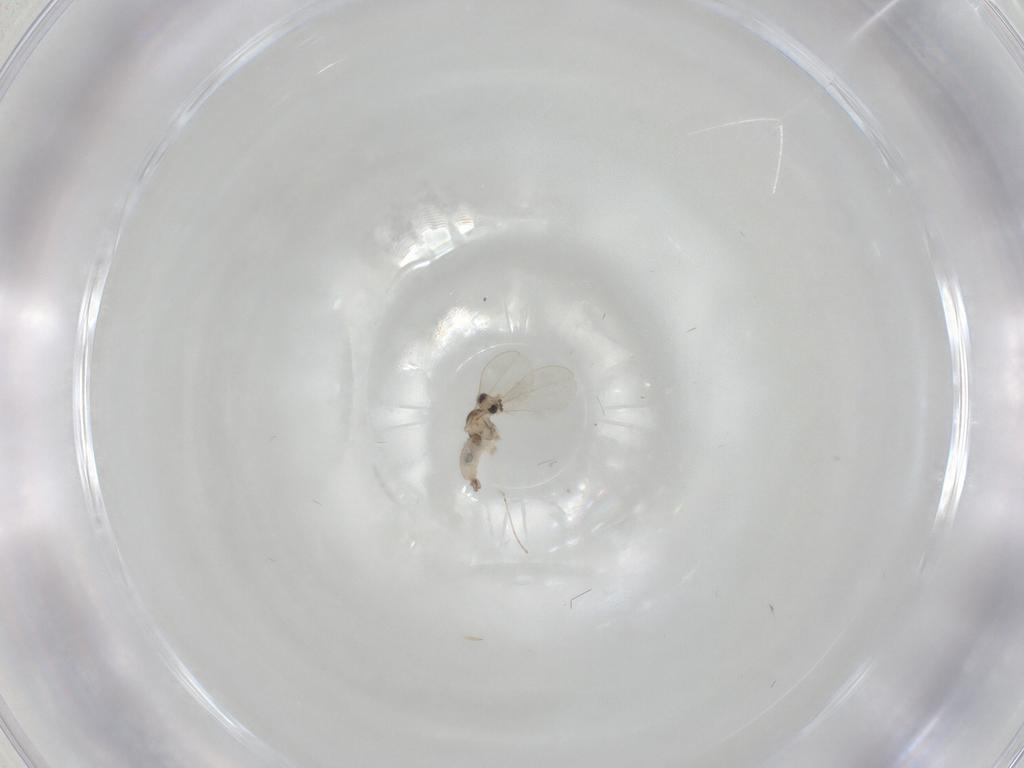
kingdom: Animalia
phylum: Arthropoda
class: Insecta
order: Diptera
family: Cecidomyiidae
